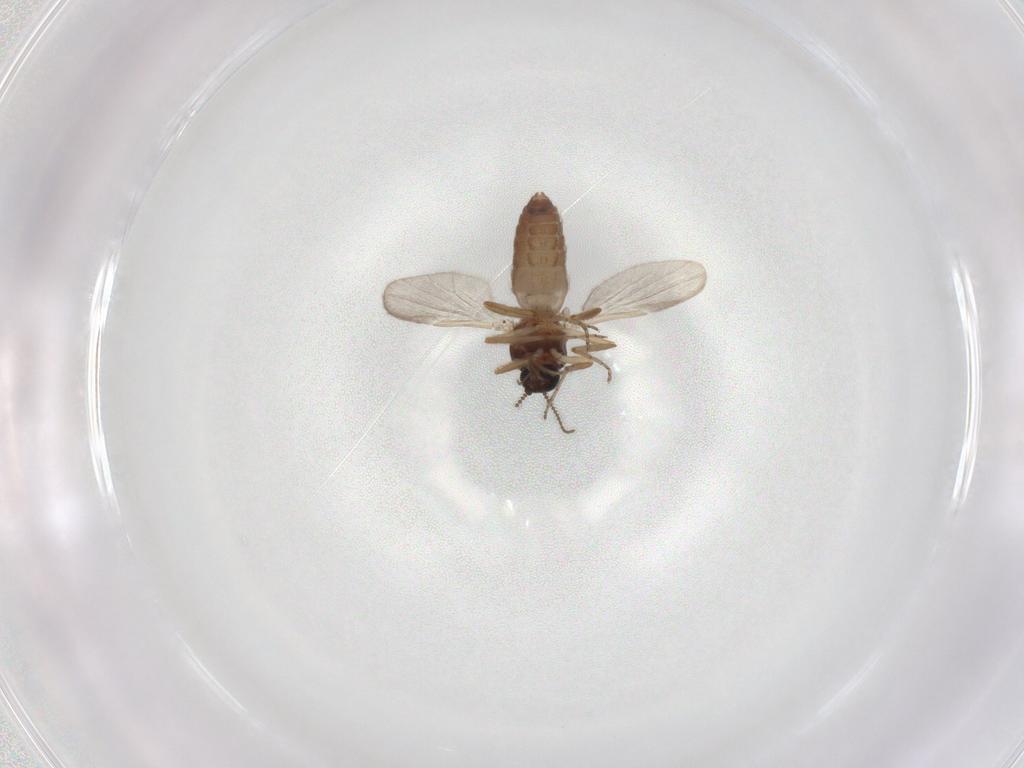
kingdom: Animalia
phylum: Arthropoda
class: Insecta
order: Diptera
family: Ceratopogonidae
